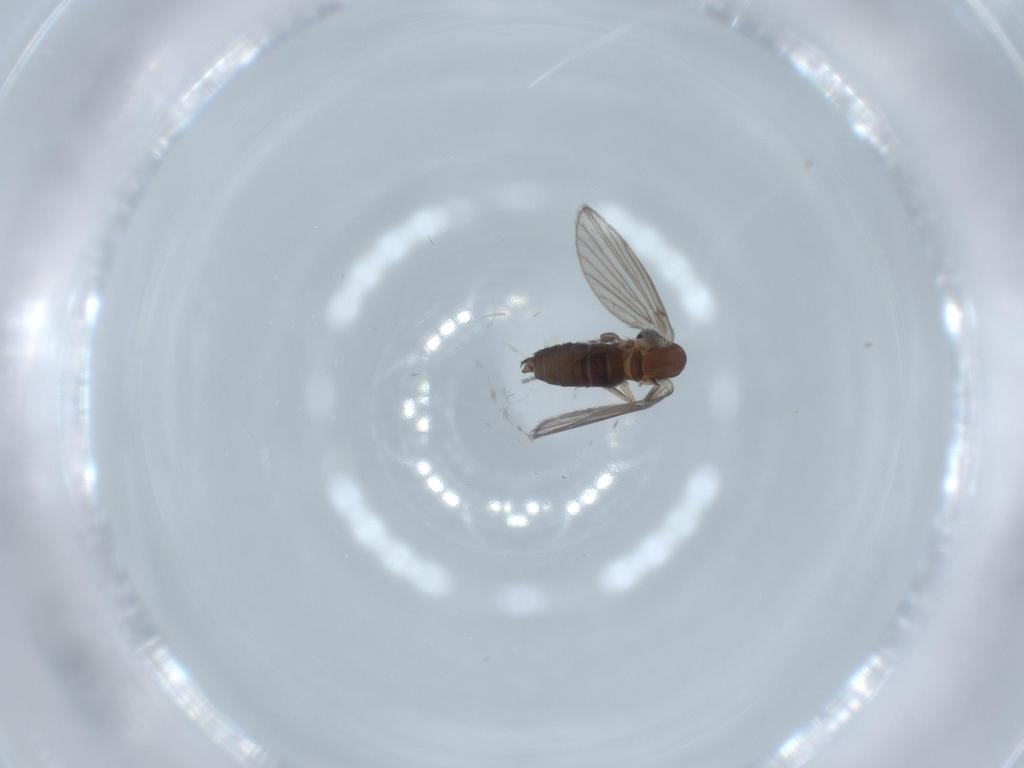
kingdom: Animalia
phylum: Arthropoda
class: Insecta
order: Diptera
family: Psychodidae
